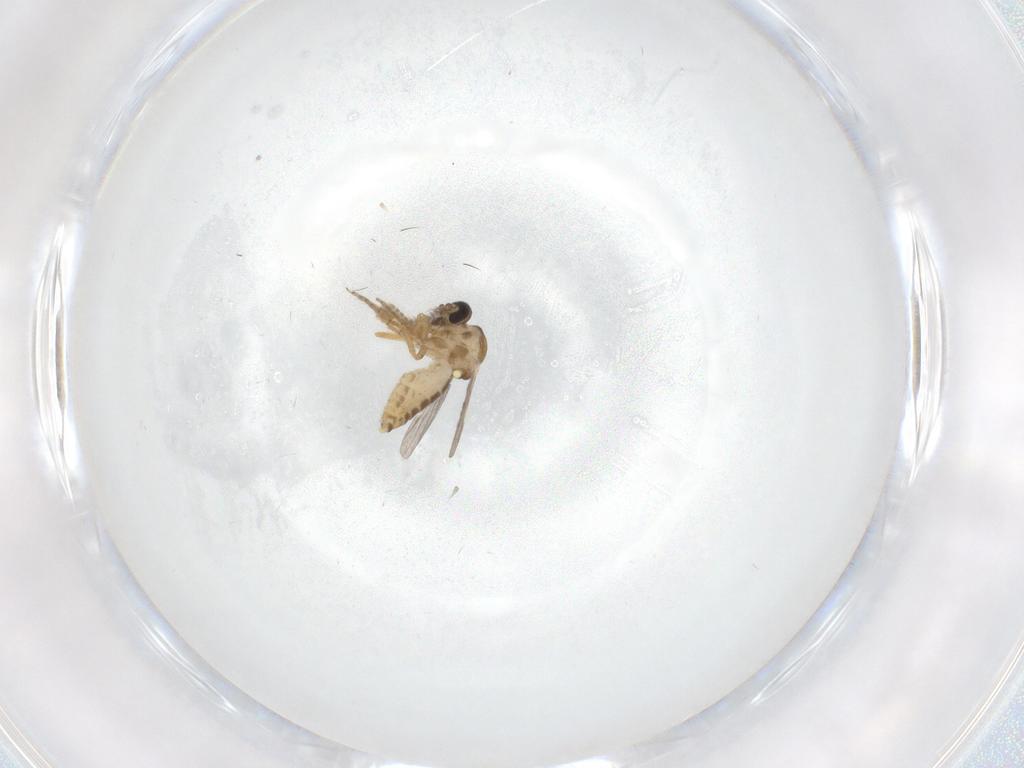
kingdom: Animalia
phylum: Arthropoda
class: Insecta
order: Diptera
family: Ceratopogonidae
